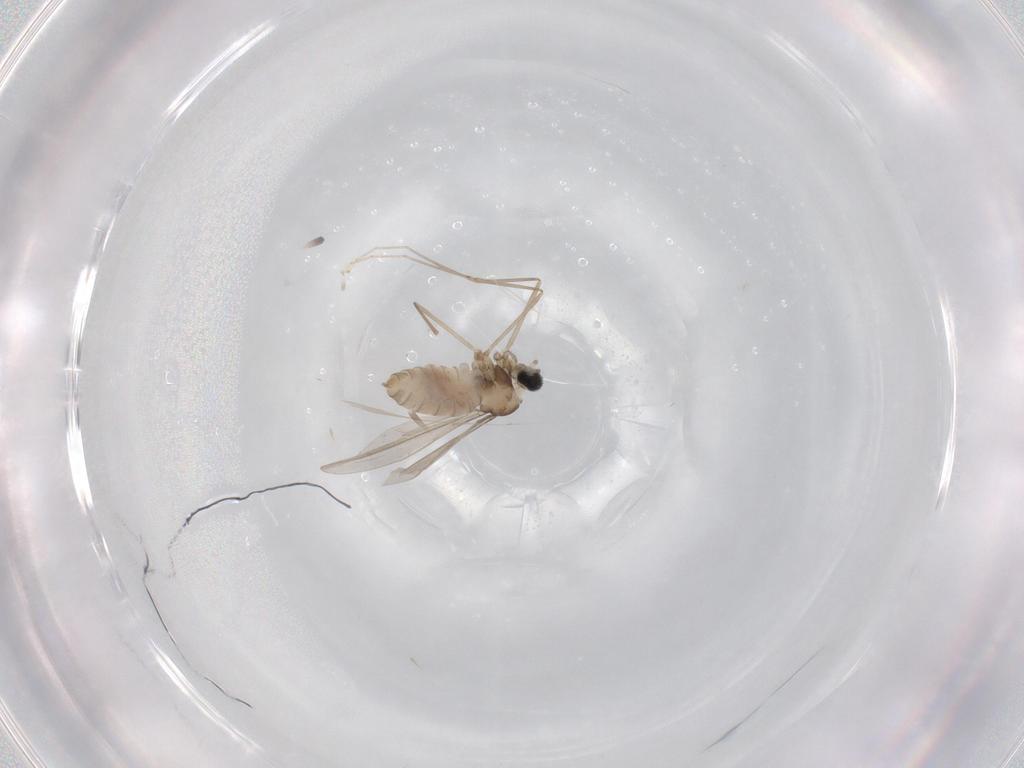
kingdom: Animalia
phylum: Arthropoda
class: Insecta
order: Diptera
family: Cecidomyiidae
